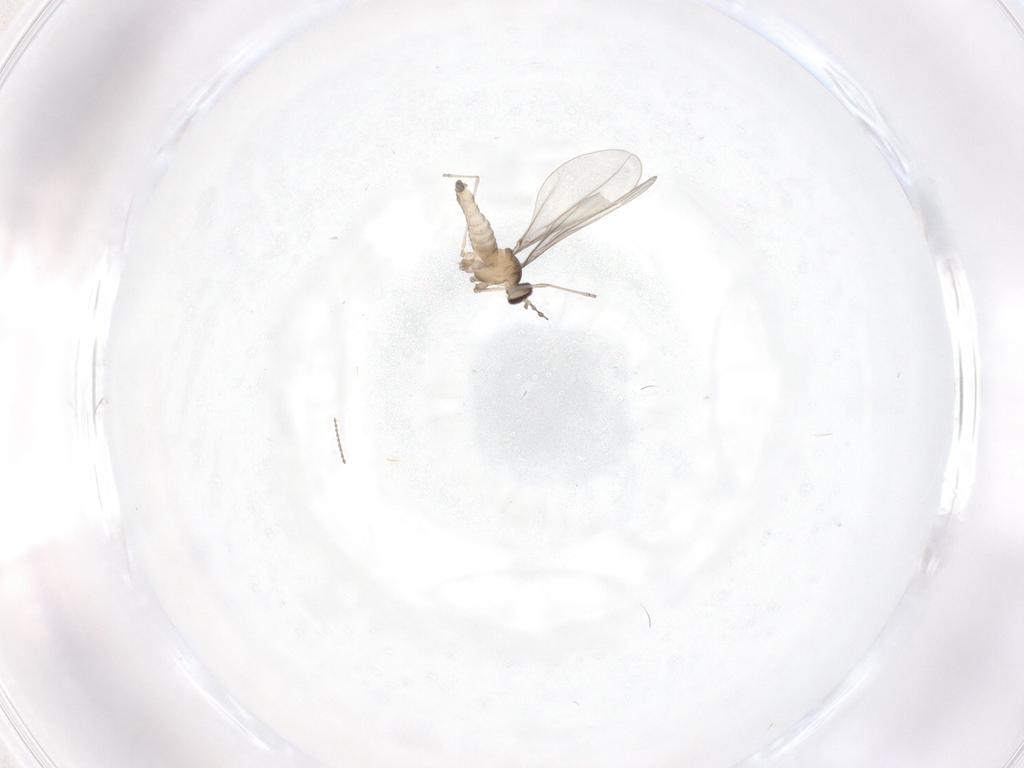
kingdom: Animalia
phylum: Arthropoda
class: Insecta
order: Diptera
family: Cecidomyiidae
